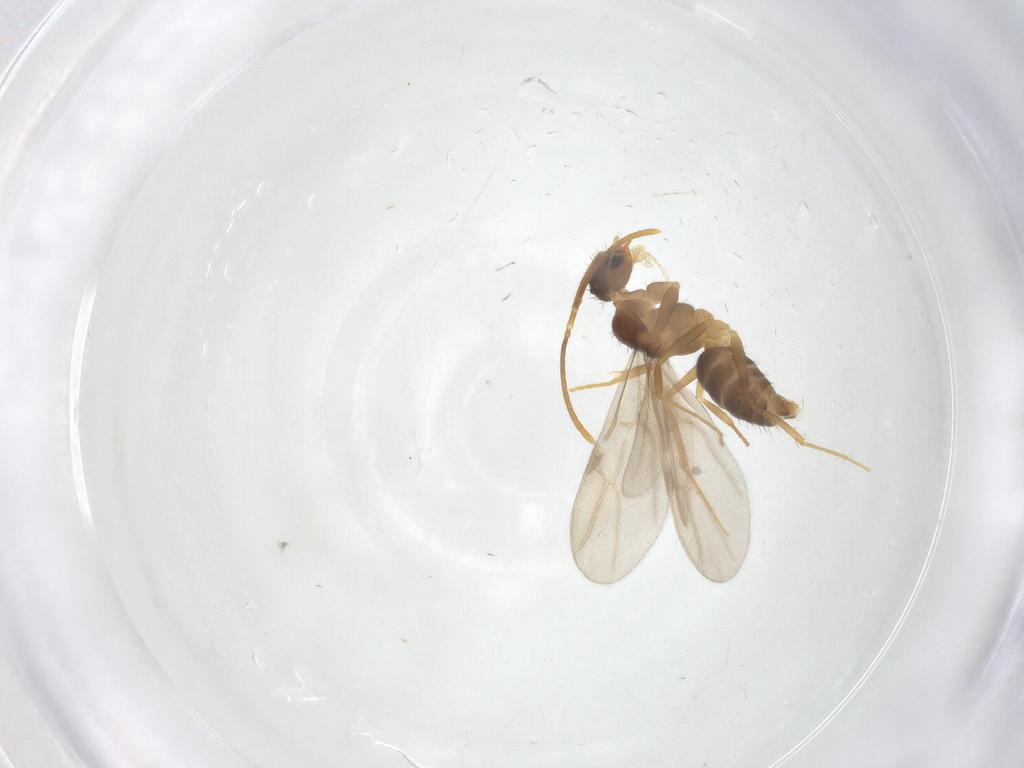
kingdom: Animalia
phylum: Arthropoda
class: Insecta
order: Hymenoptera
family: Formicidae
